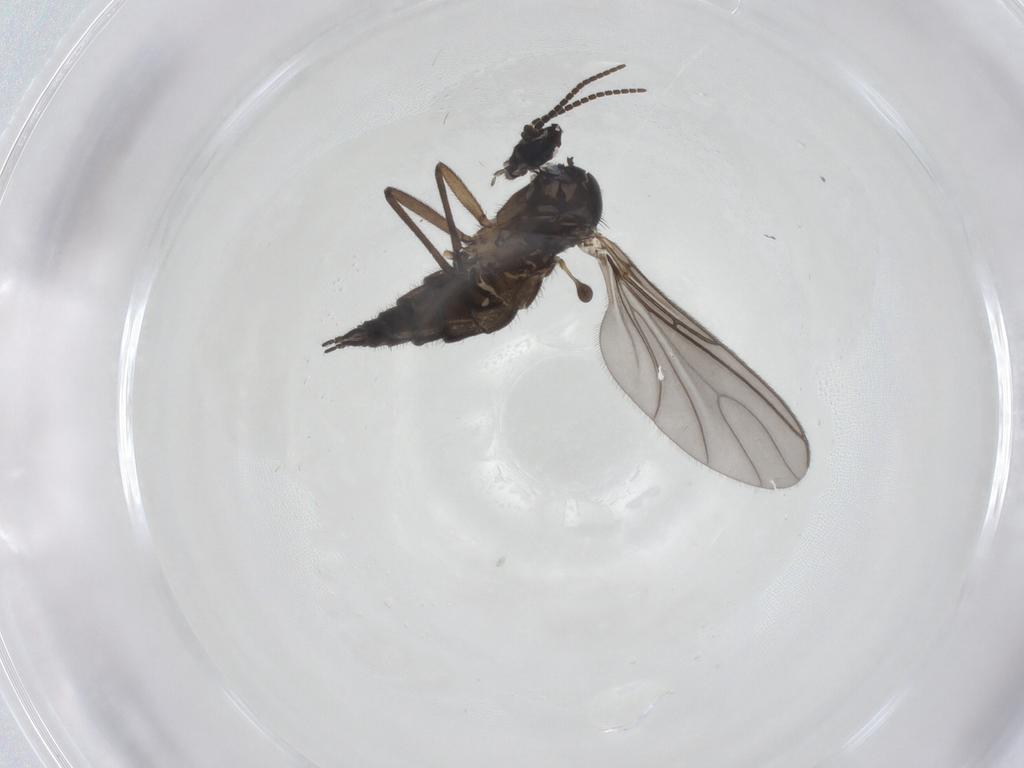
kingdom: Animalia
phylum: Arthropoda
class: Insecta
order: Diptera
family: Sciaridae
